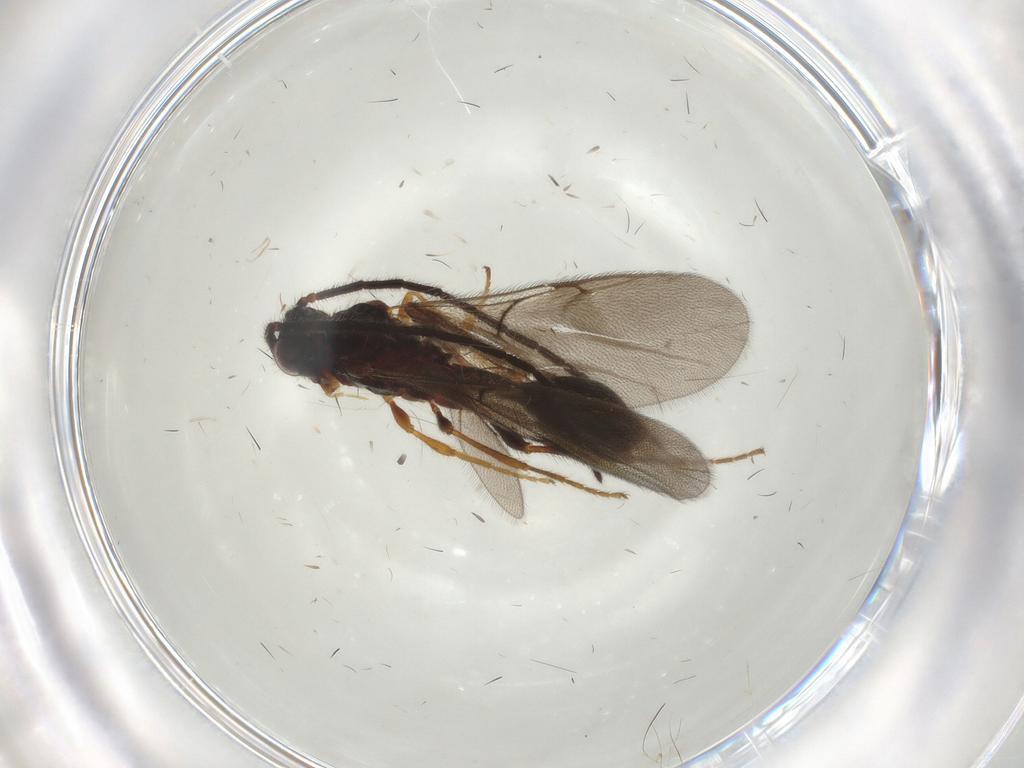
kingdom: Animalia
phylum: Arthropoda
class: Insecta
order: Hymenoptera
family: Diapriidae
